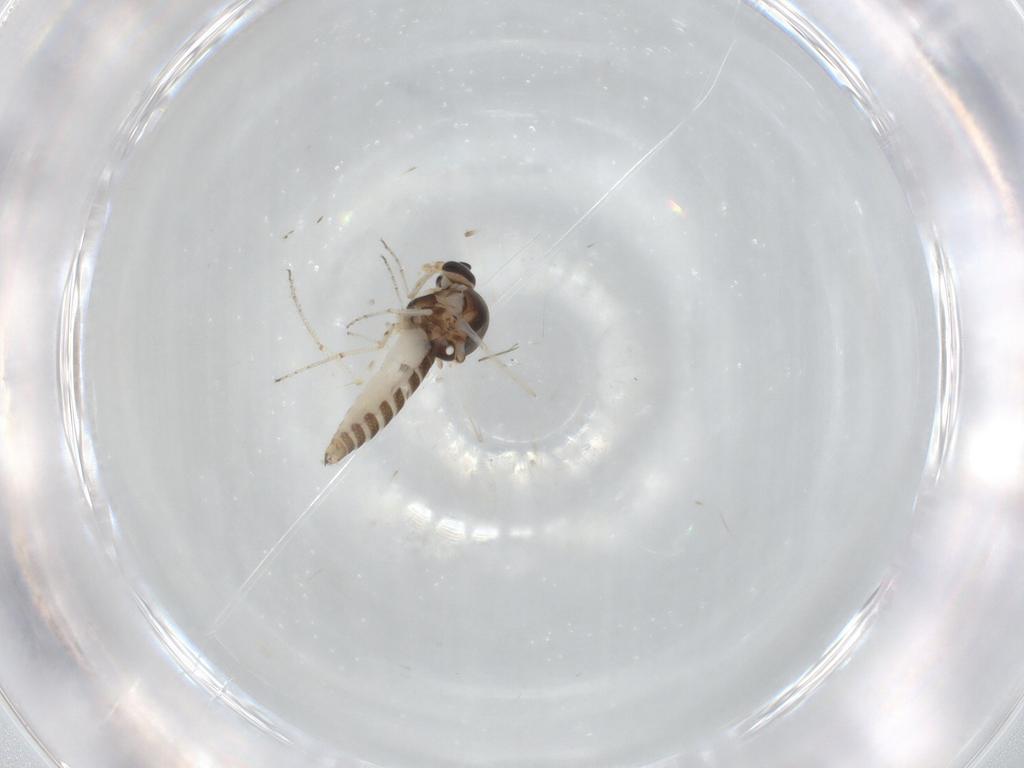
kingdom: Animalia
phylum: Arthropoda
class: Insecta
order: Diptera
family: Ceratopogonidae
